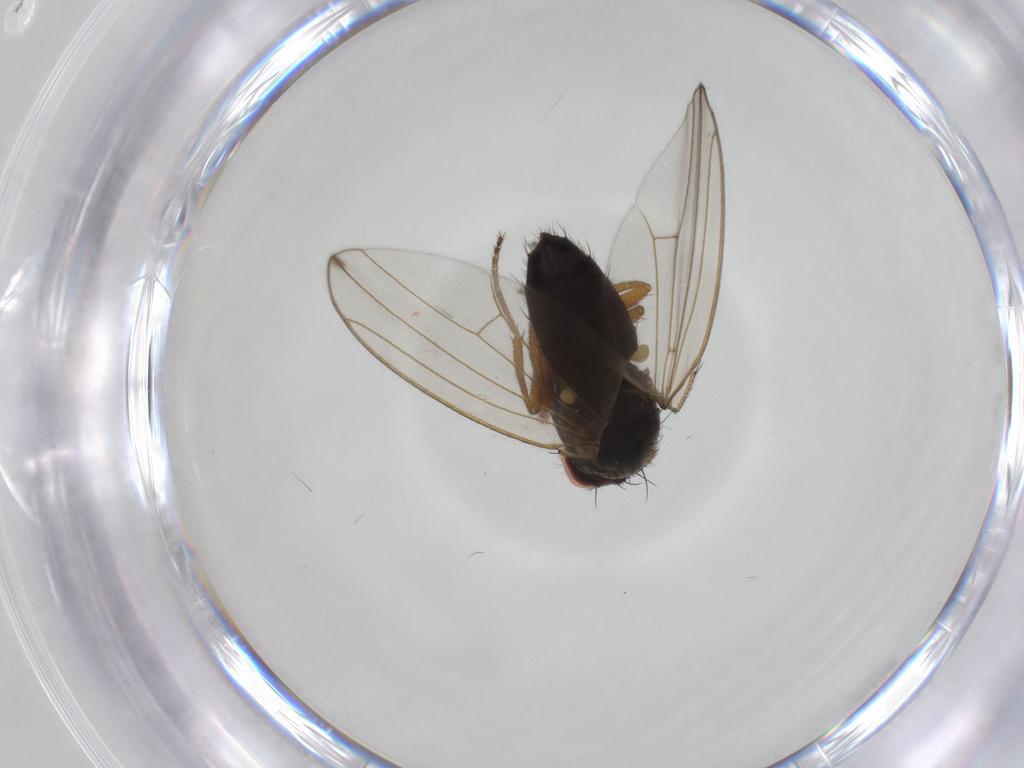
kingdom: Animalia
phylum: Arthropoda
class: Insecta
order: Diptera
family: Drosophilidae
